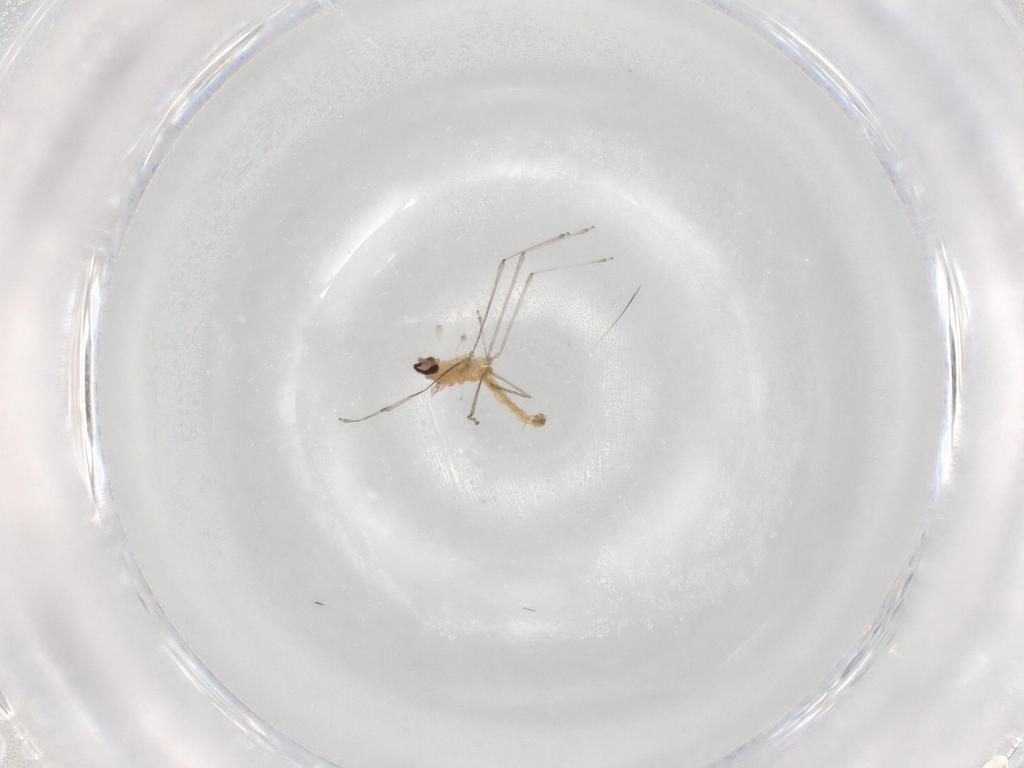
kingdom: Animalia
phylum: Arthropoda
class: Insecta
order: Diptera
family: Cecidomyiidae
